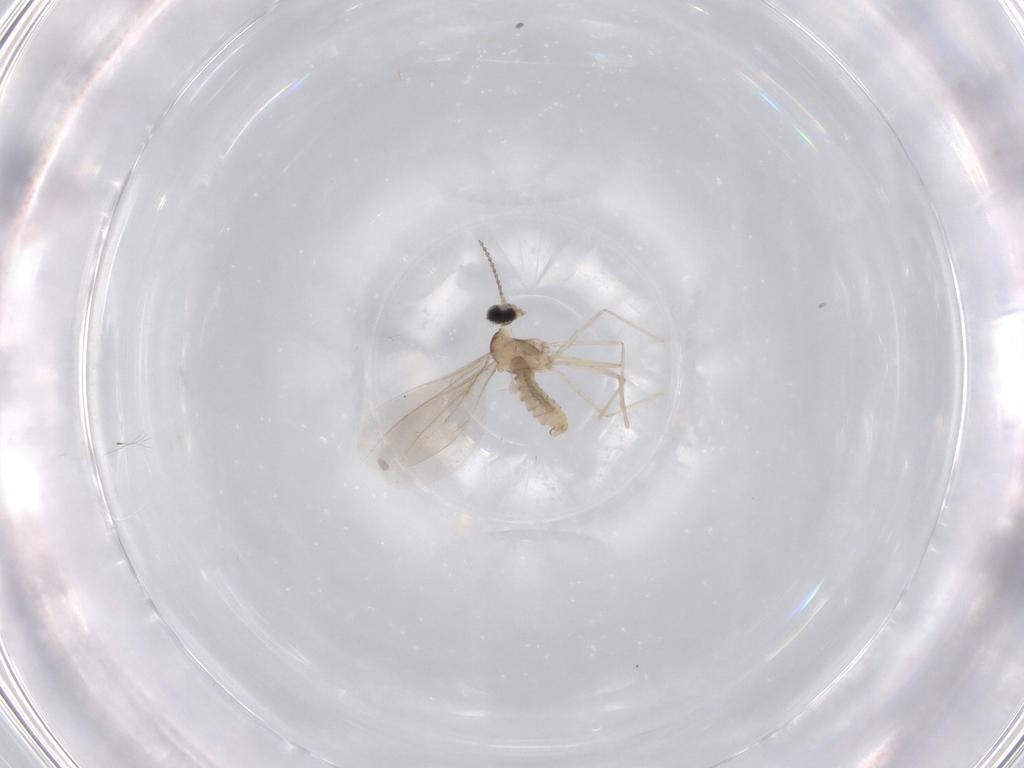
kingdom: Animalia
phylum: Arthropoda
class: Insecta
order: Diptera
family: Cecidomyiidae
